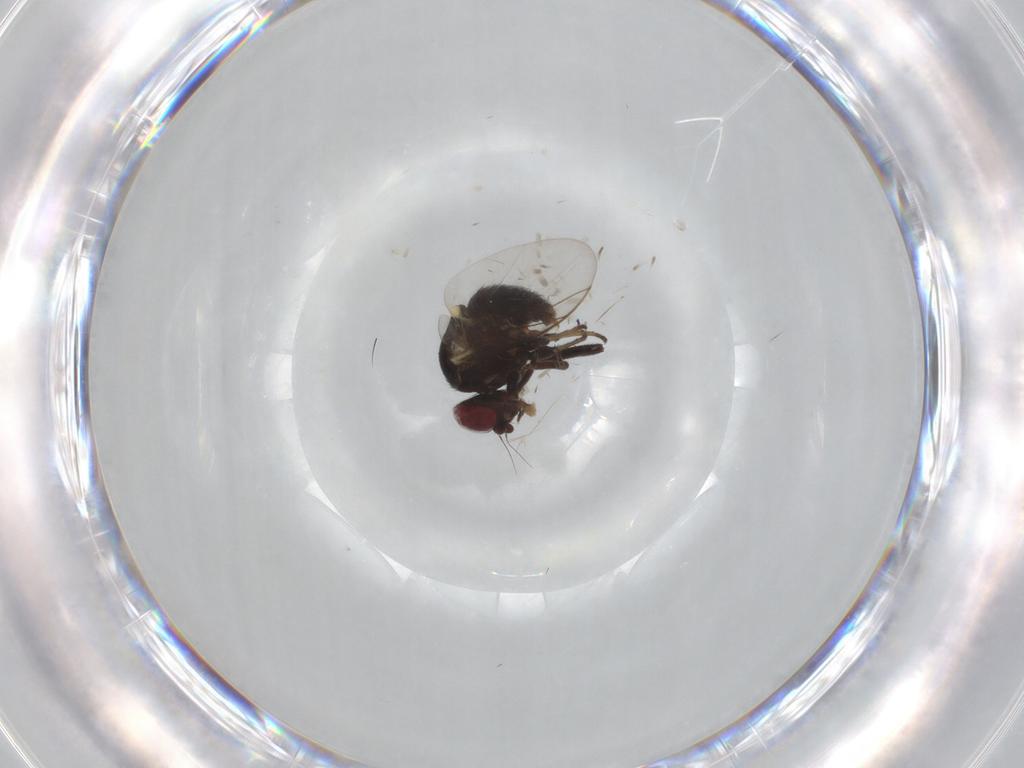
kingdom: Animalia
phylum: Arthropoda
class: Insecta
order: Diptera
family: Agromyzidae
